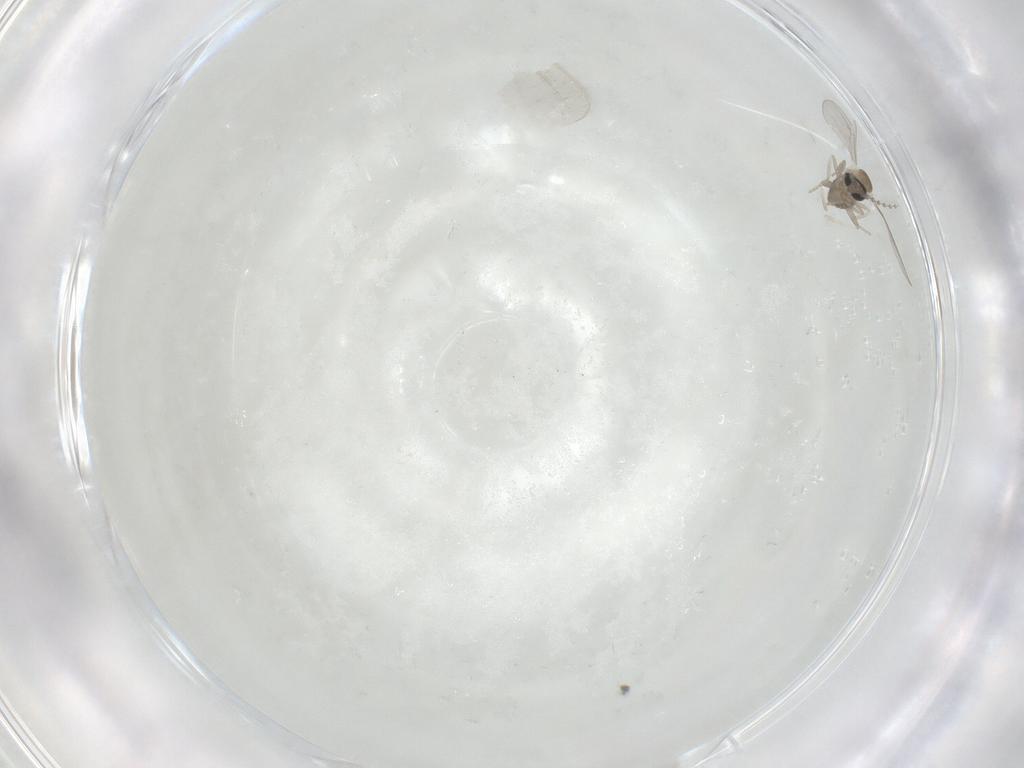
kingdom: Animalia
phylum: Arthropoda
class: Insecta
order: Diptera
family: Cecidomyiidae
